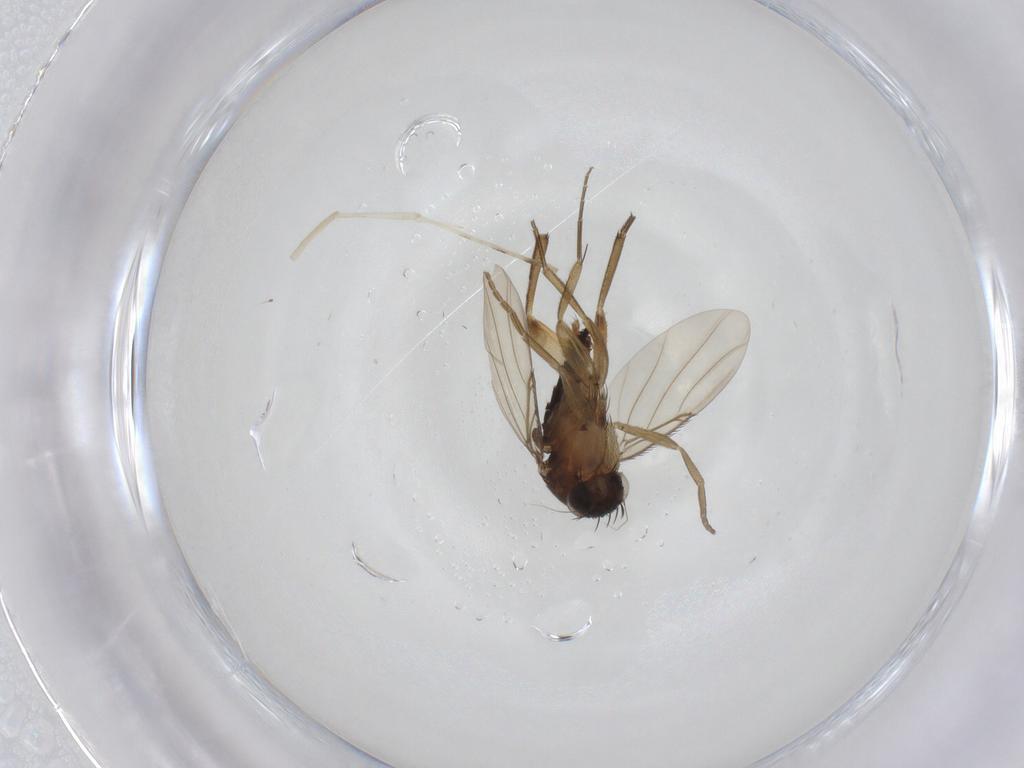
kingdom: Animalia
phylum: Arthropoda
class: Insecta
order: Diptera
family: Phoridae
